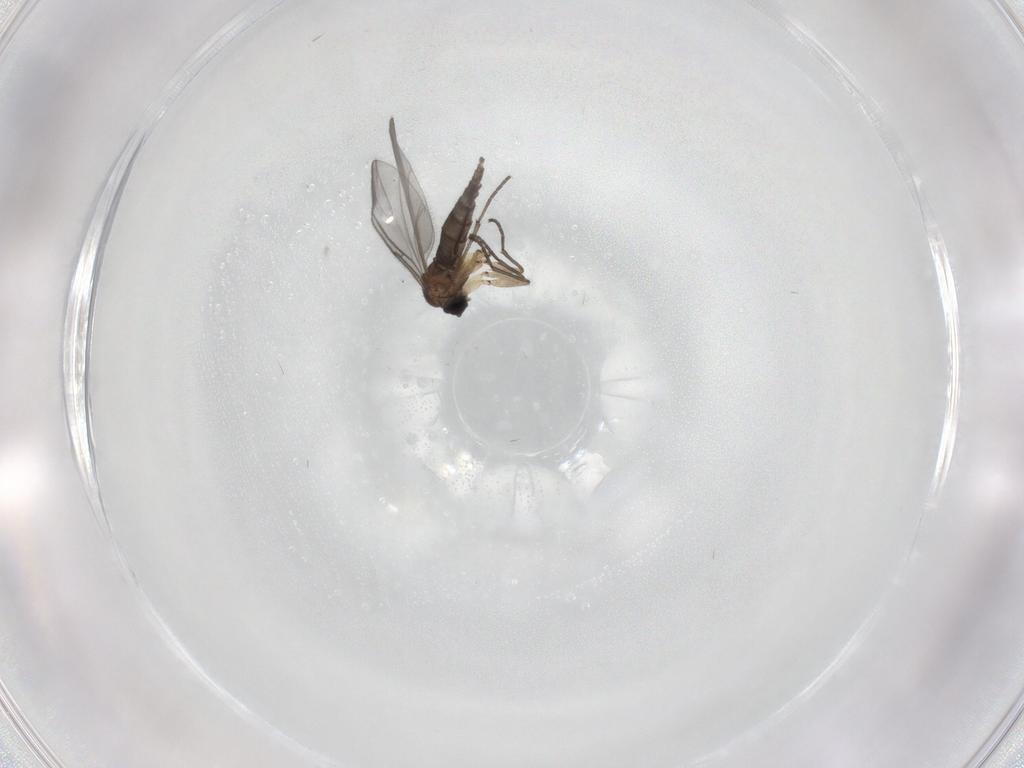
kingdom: Animalia
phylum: Arthropoda
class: Insecta
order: Diptera
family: Sciaridae
